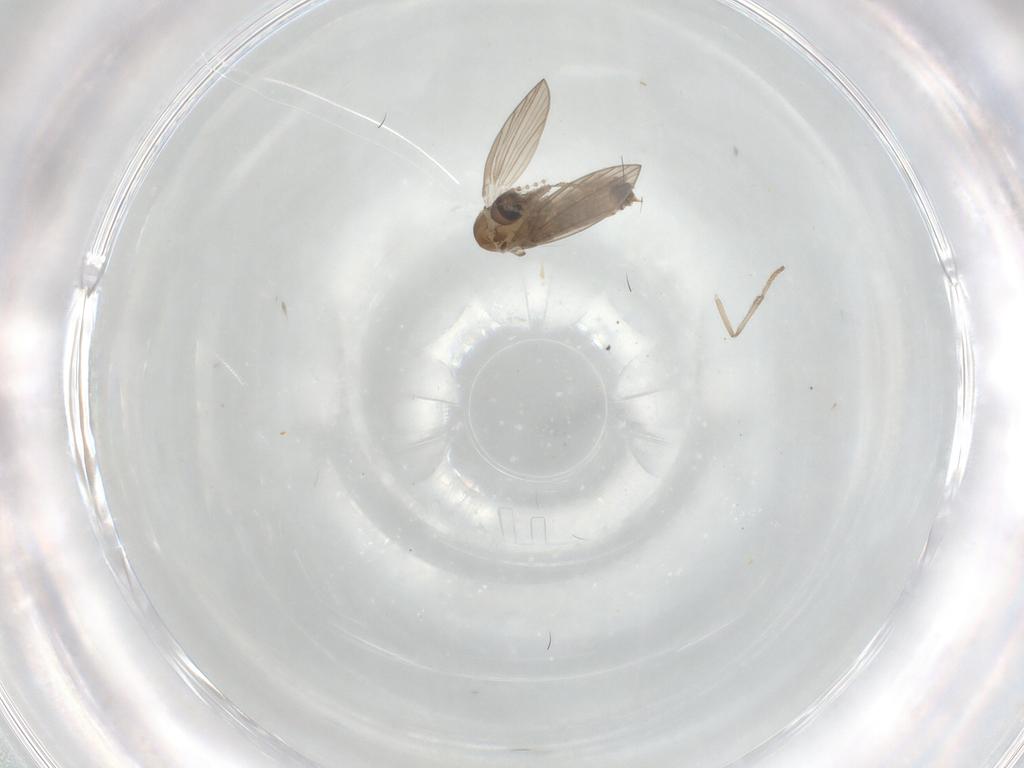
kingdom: Animalia
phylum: Arthropoda
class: Insecta
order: Diptera
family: Psychodidae
